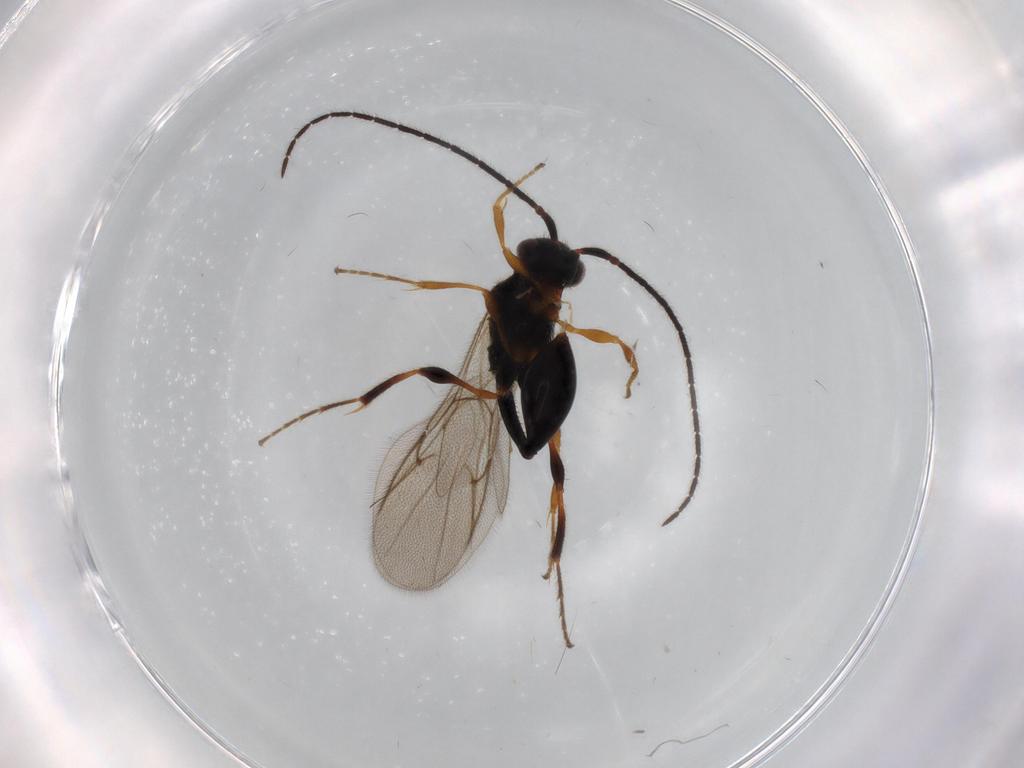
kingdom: Animalia
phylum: Arthropoda
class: Insecta
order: Hymenoptera
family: Diapriidae
